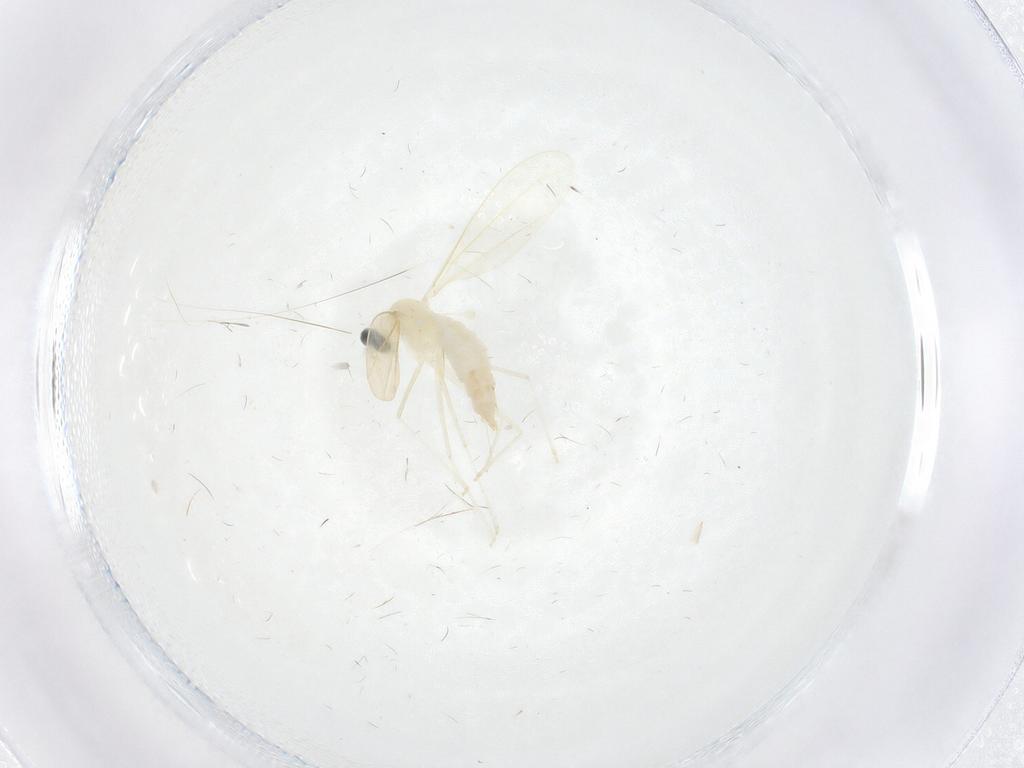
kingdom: Animalia
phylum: Arthropoda
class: Insecta
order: Diptera
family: Cecidomyiidae
